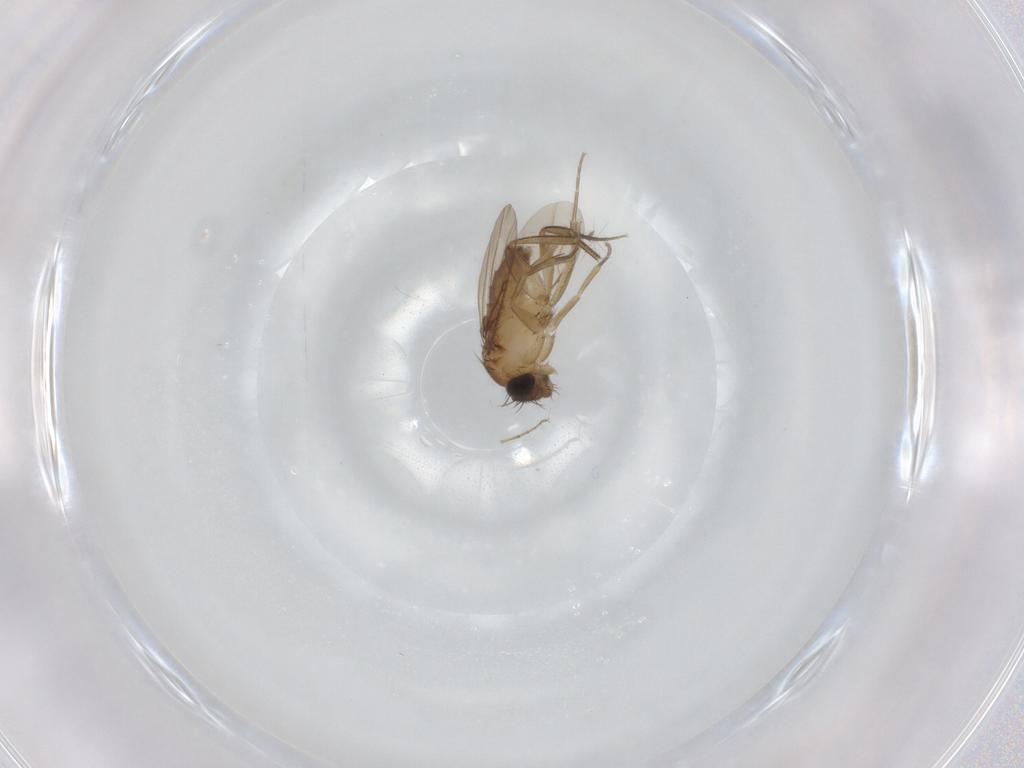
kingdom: Animalia
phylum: Arthropoda
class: Insecta
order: Diptera
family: Phoridae
